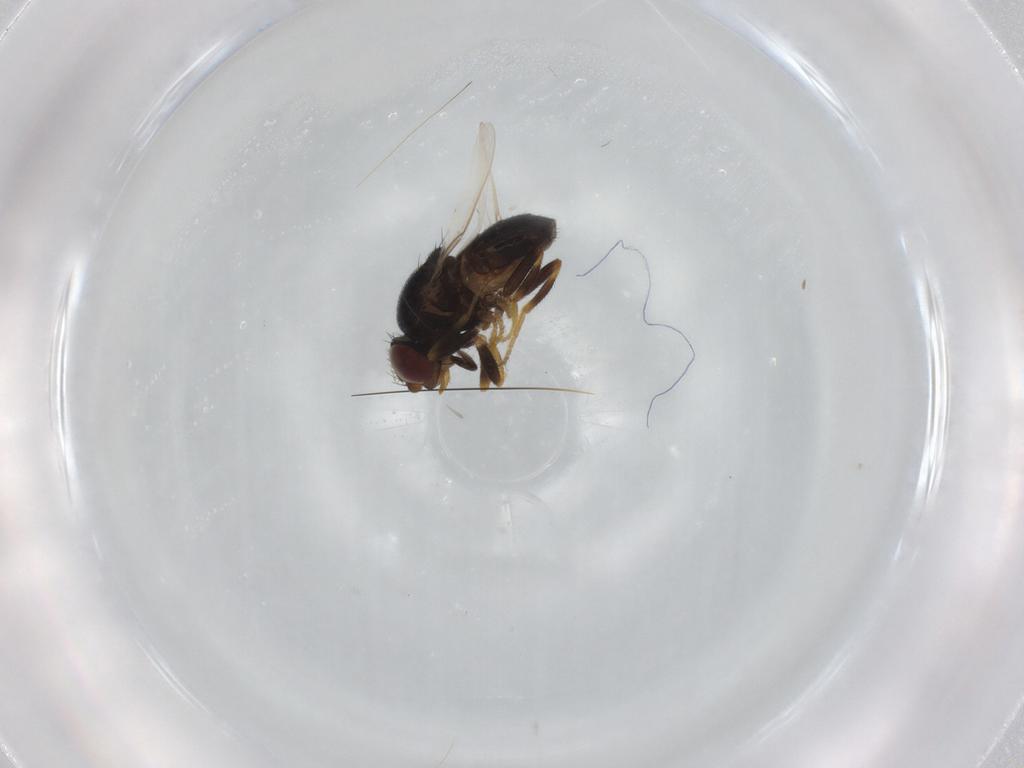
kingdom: Animalia
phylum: Arthropoda
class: Insecta
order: Diptera
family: Chloropidae
